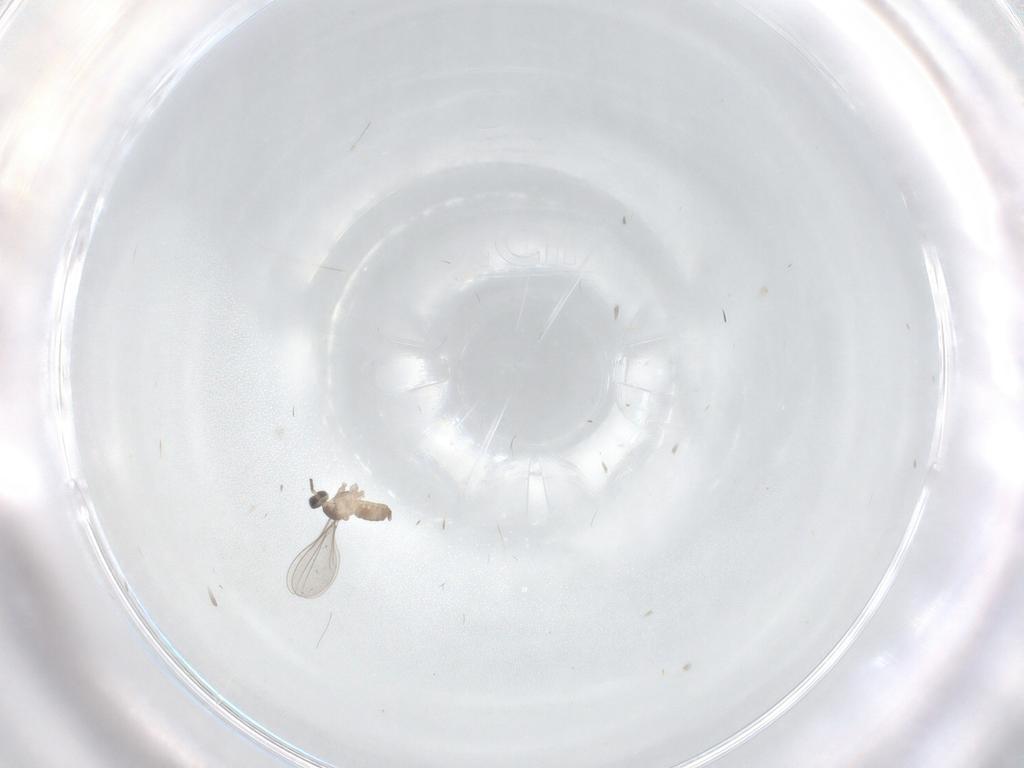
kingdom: Animalia
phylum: Arthropoda
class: Insecta
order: Diptera
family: Cecidomyiidae
